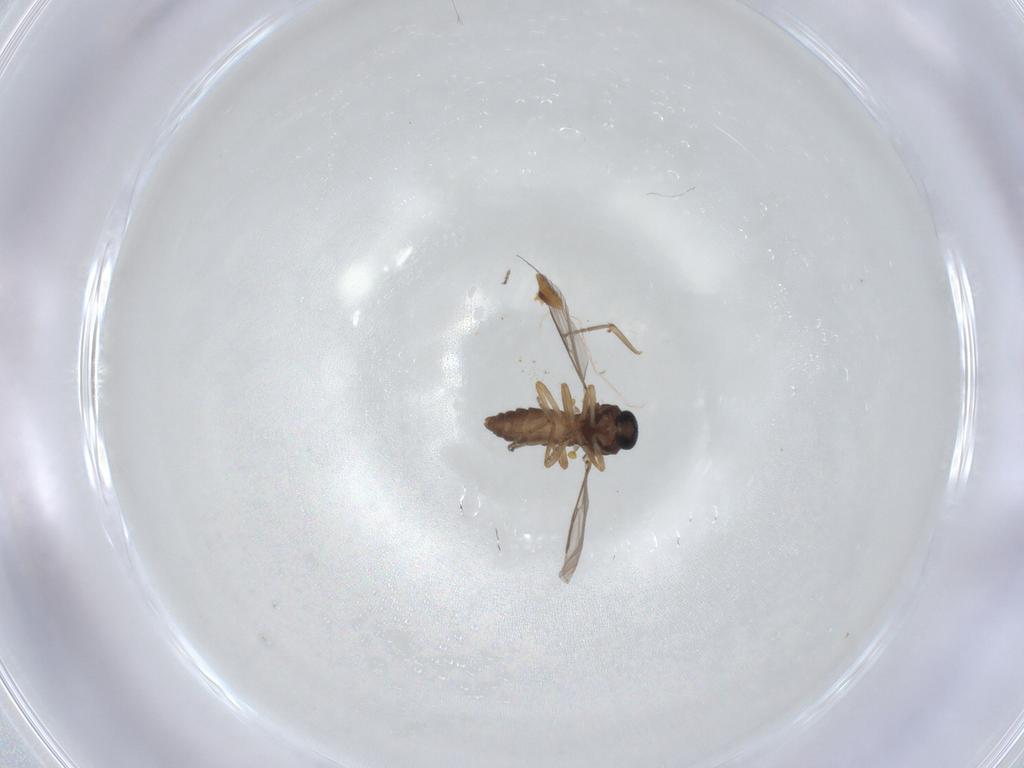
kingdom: Animalia
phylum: Arthropoda
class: Insecta
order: Diptera
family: Ceratopogonidae
